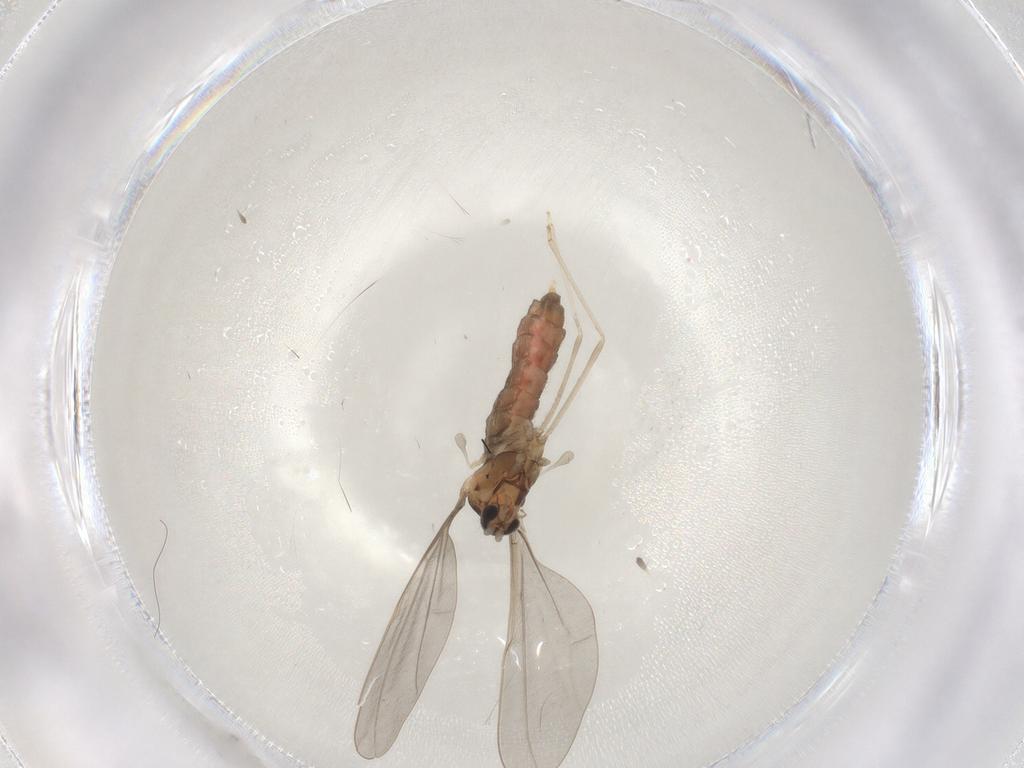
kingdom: Animalia
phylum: Arthropoda
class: Insecta
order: Diptera
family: Cecidomyiidae
